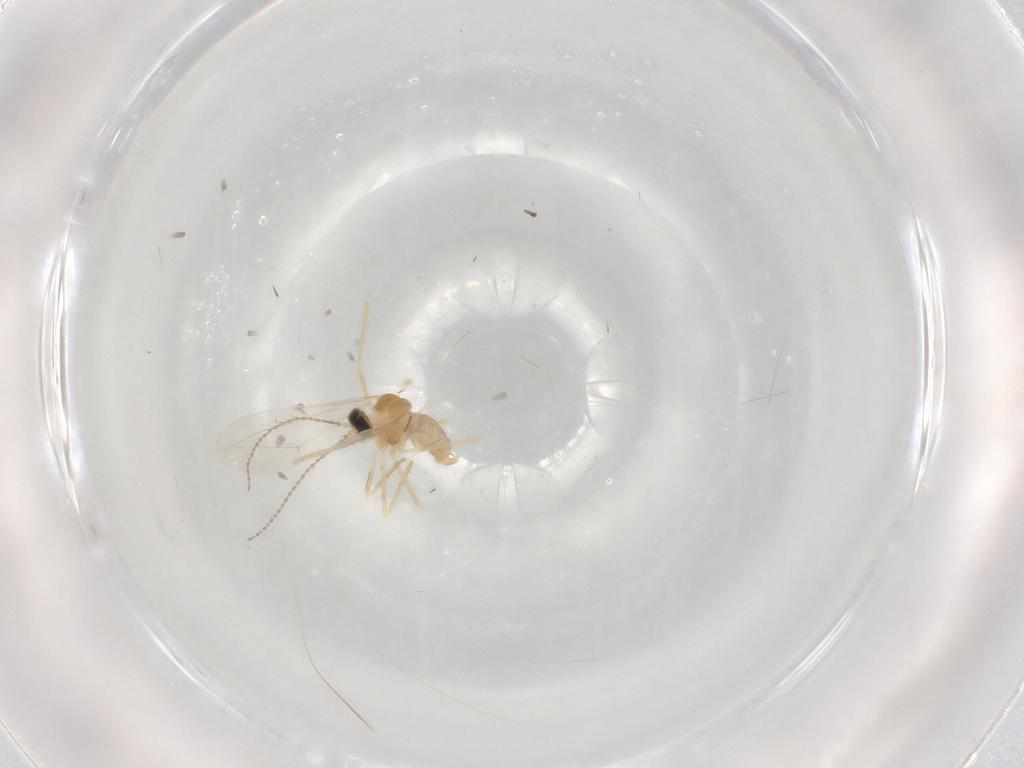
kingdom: Animalia
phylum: Arthropoda
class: Insecta
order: Diptera
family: Cecidomyiidae
